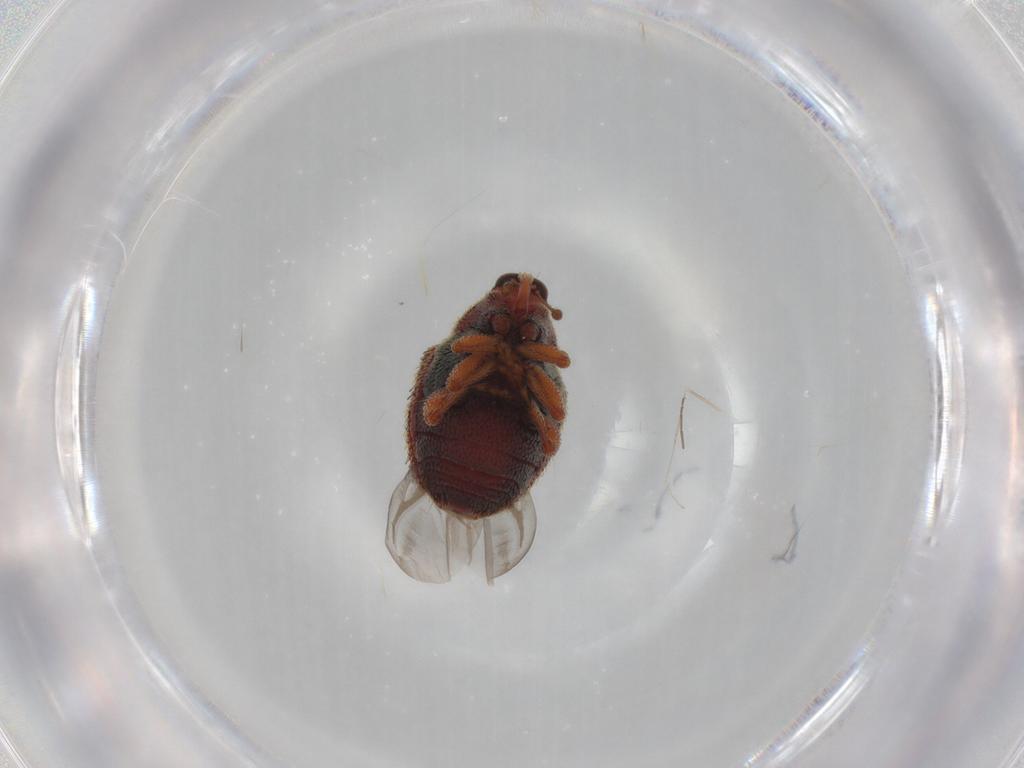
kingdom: Animalia
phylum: Arthropoda
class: Insecta
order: Coleoptera
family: Curculionidae
